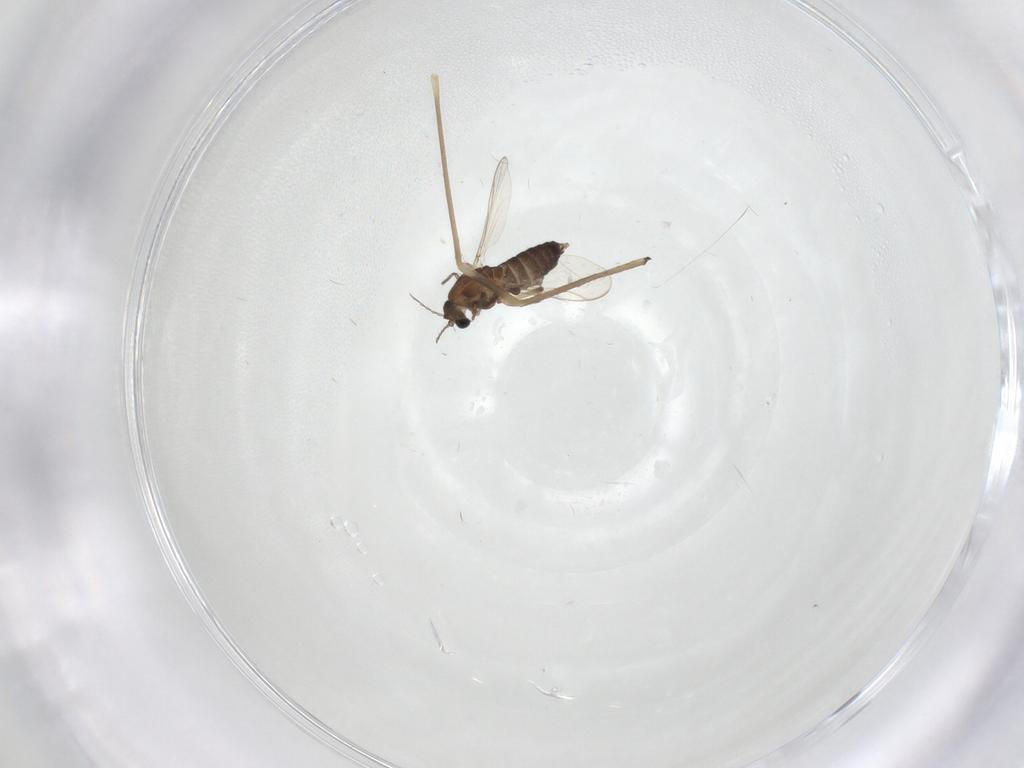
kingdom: Animalia
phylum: Arthropoda
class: Insecta
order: Diptera
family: Chironomidae
